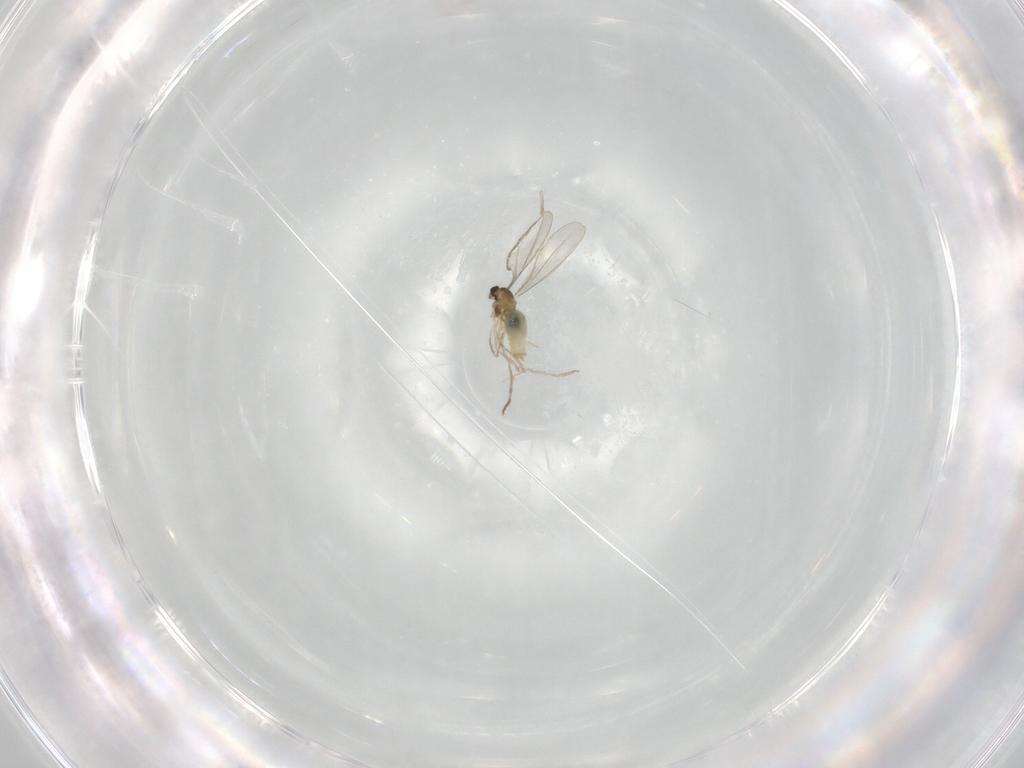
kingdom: Animalia
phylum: Arthropoda
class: Insecta
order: Diptera
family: Cecidomyiidae
